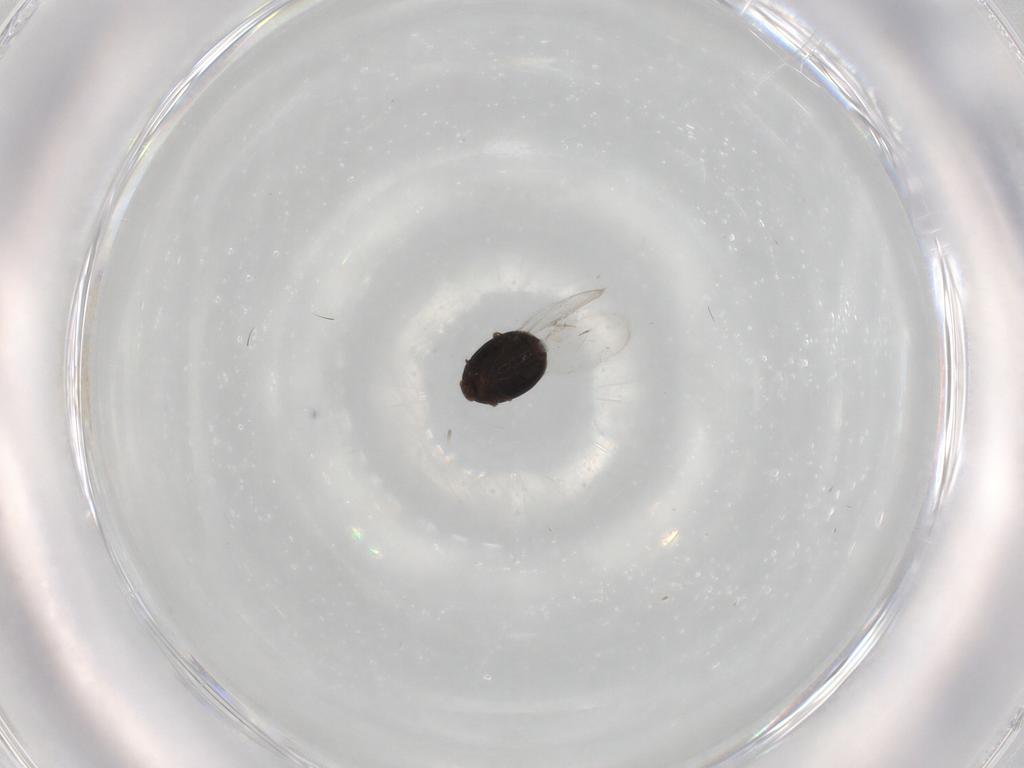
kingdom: Animalia
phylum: Arthropoda
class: Insecta
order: Coleoptera
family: Corylophidae
